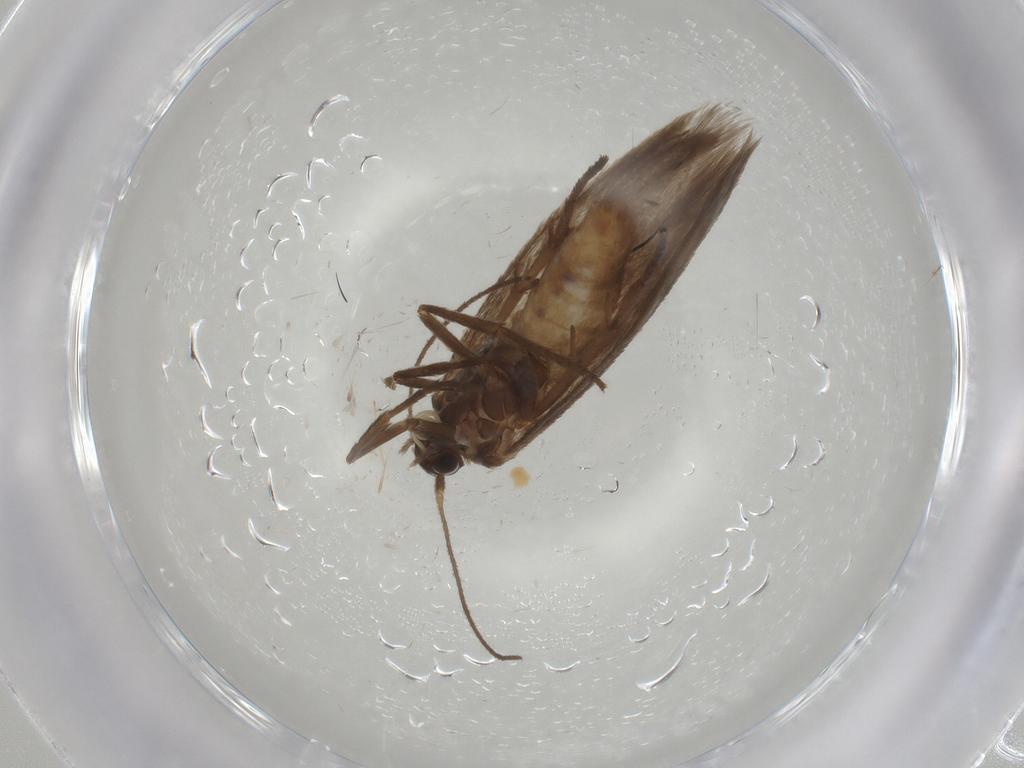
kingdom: Animalia
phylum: Arthropoda
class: Insecta
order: Lepidoptera
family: Limacodidae
